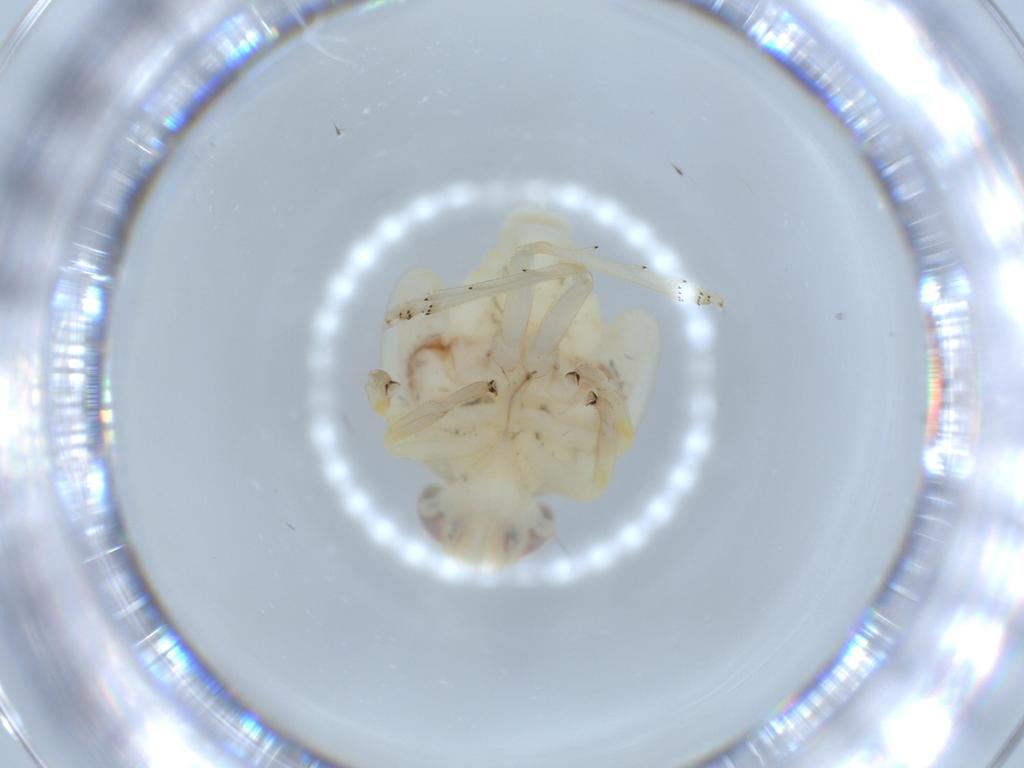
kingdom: Animalia
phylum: Arthropoda
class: Insecta
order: Hemiptera
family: Nogodinidae
